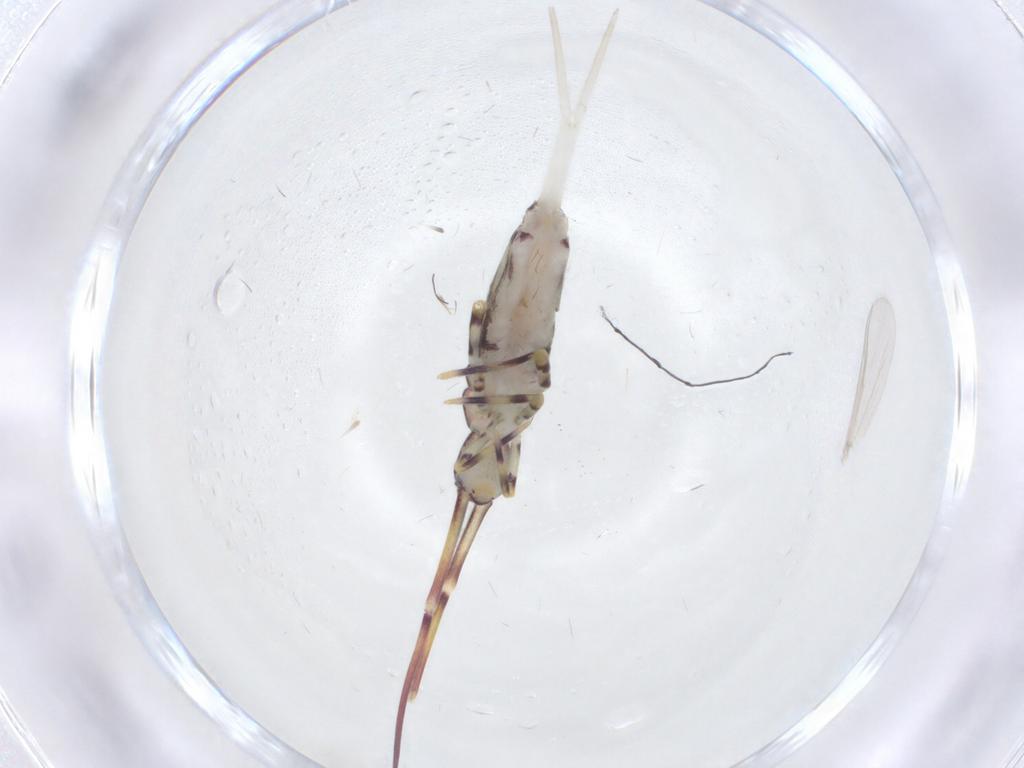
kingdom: Animalia
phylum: Arthropoda
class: Collembola
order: Entomobryomorpha
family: Entomobryidae
